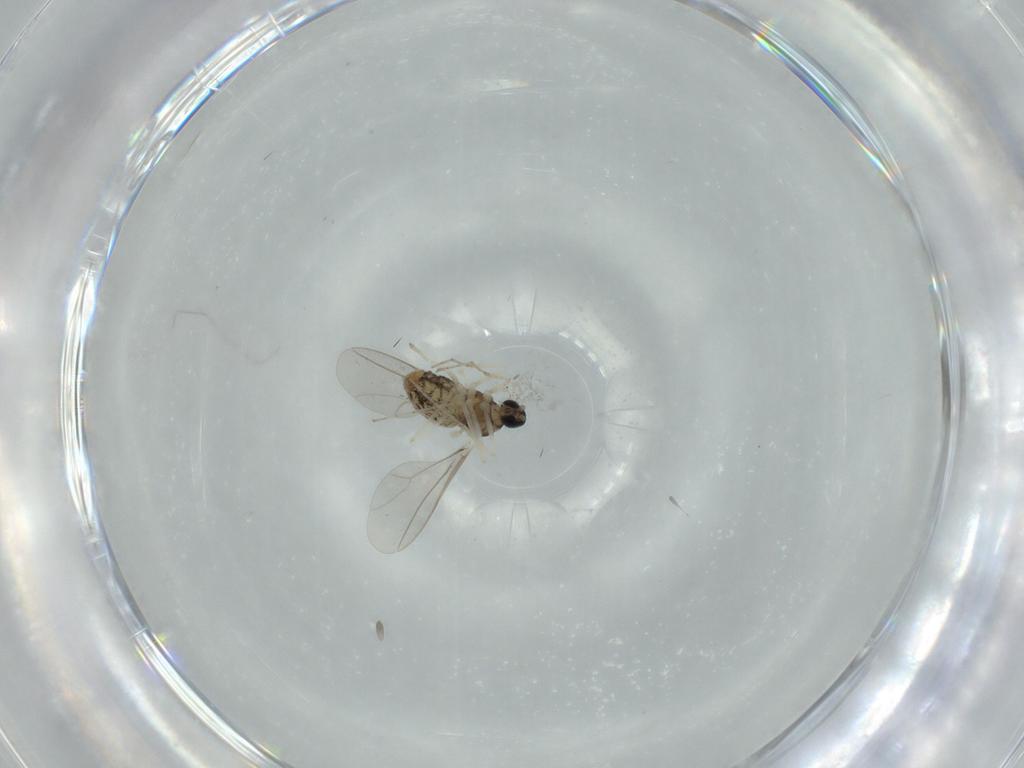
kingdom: Animalia
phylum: Arthropoda
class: Insecta
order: Diptera
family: Cecidomyiidae
